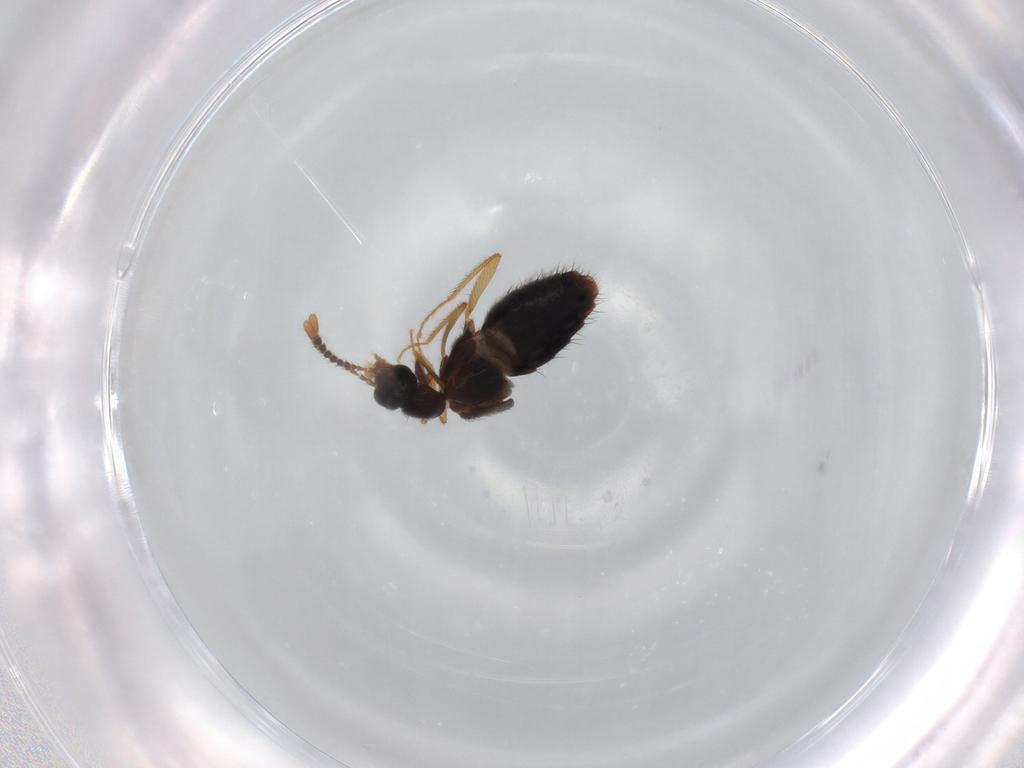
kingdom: Animalia
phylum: Arthropoda
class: Insecta
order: Coleoptera
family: Staphylinidae
